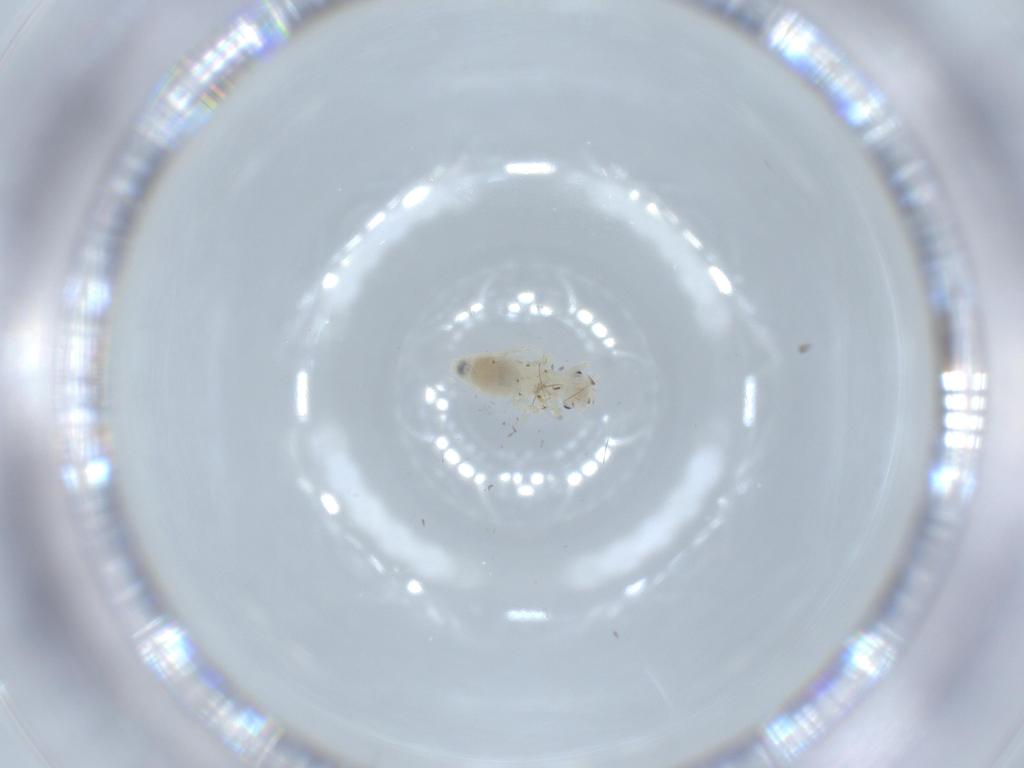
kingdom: Animalia
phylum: Arthropoda
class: Insecta
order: Psocodea
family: Caeciliusidae
